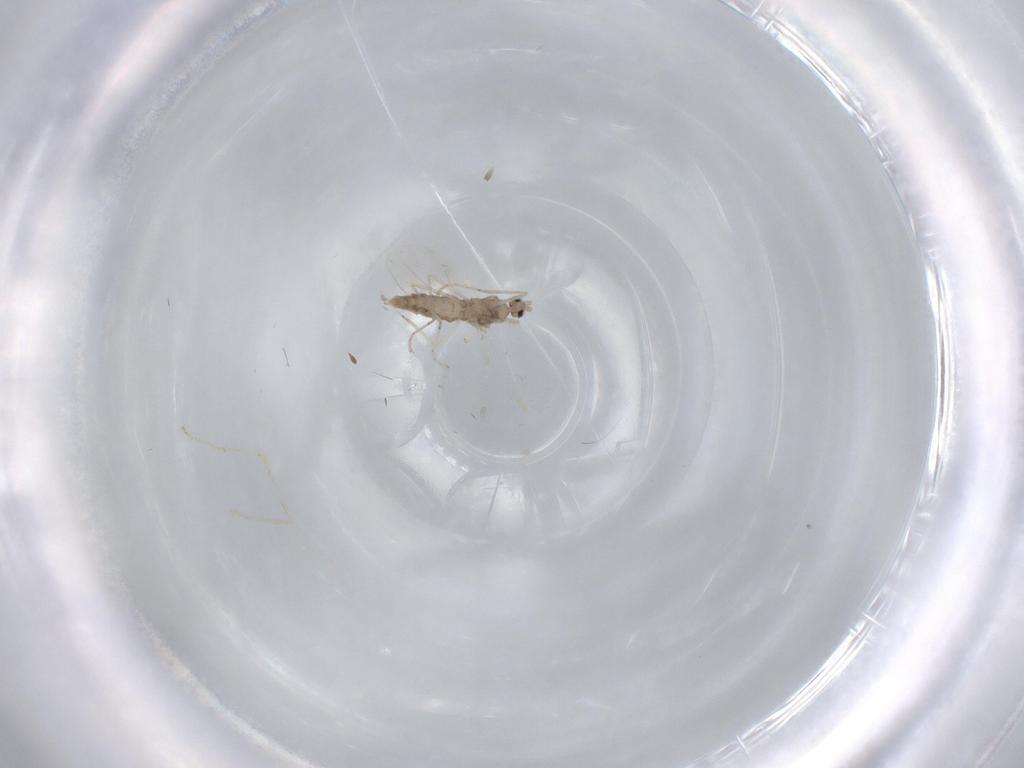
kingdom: Animalia
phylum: Arthropoda
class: Insecta
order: Diptera
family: Cecidomyiidae
